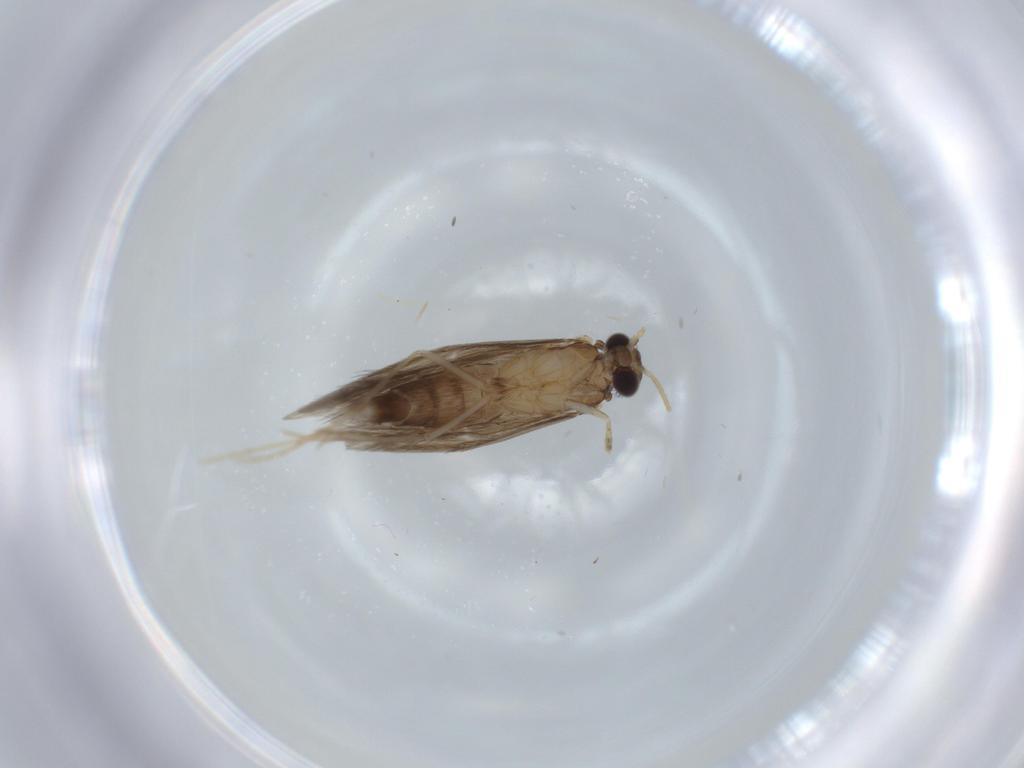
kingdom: Animalia
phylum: Arthropoda
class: Insecta
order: Trichoptera
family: Hydroptilidae
